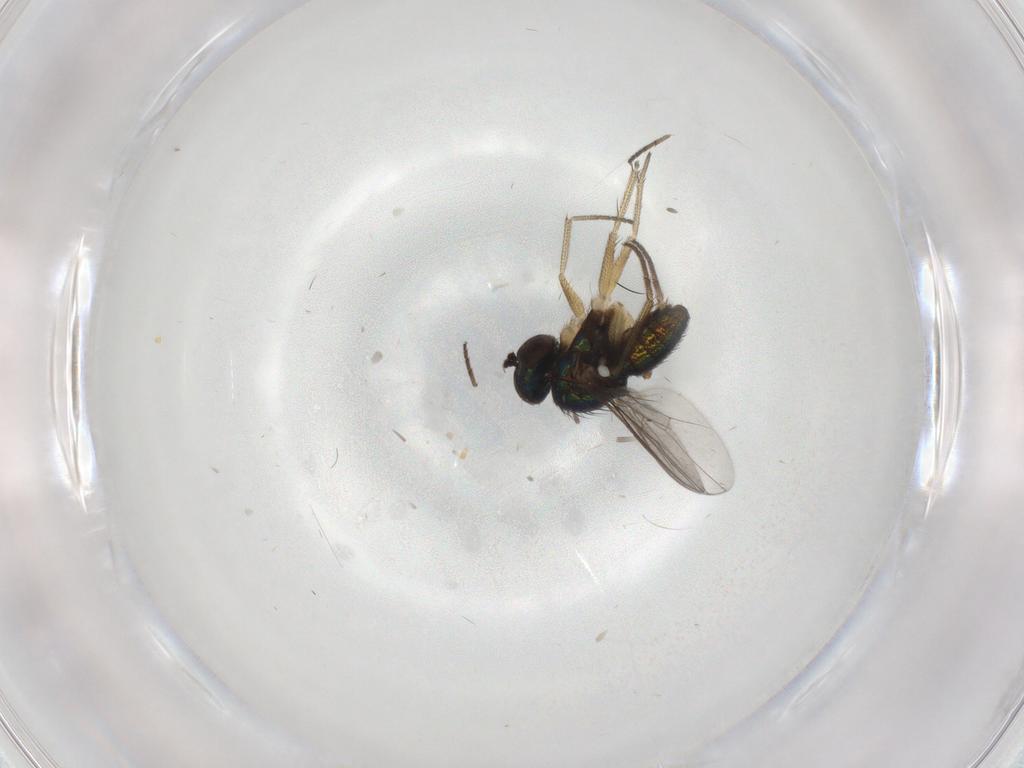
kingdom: Animalia
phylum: Arthropoda
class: Insecta
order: Diptera
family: Dolichopodidae
